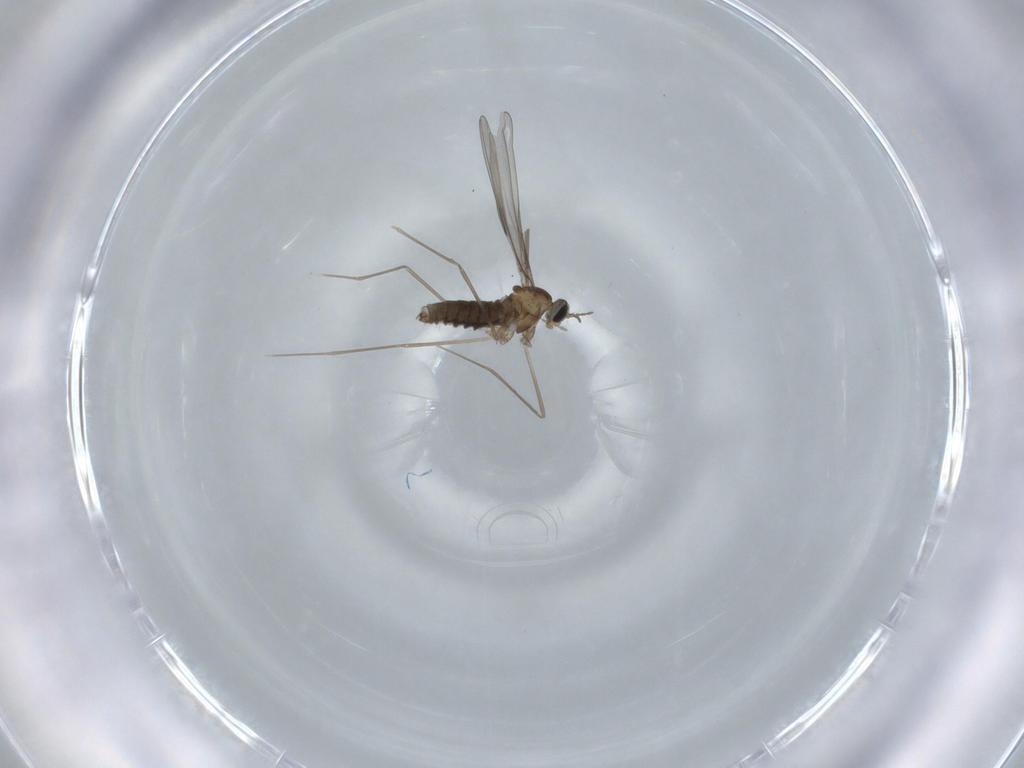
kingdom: Animalia
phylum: Arthropoda
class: Insecta
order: Diptera
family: Cecidomyiidae
